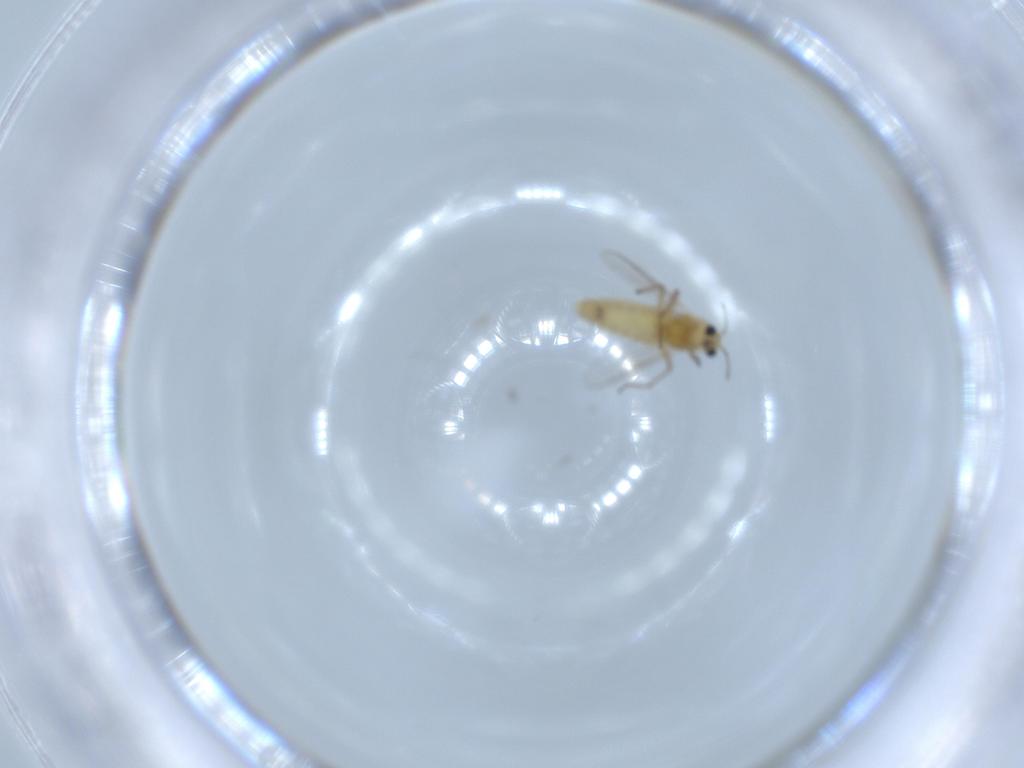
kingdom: Animalia
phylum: Arthropoda
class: Insecta
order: Diptera
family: Chironomidae
